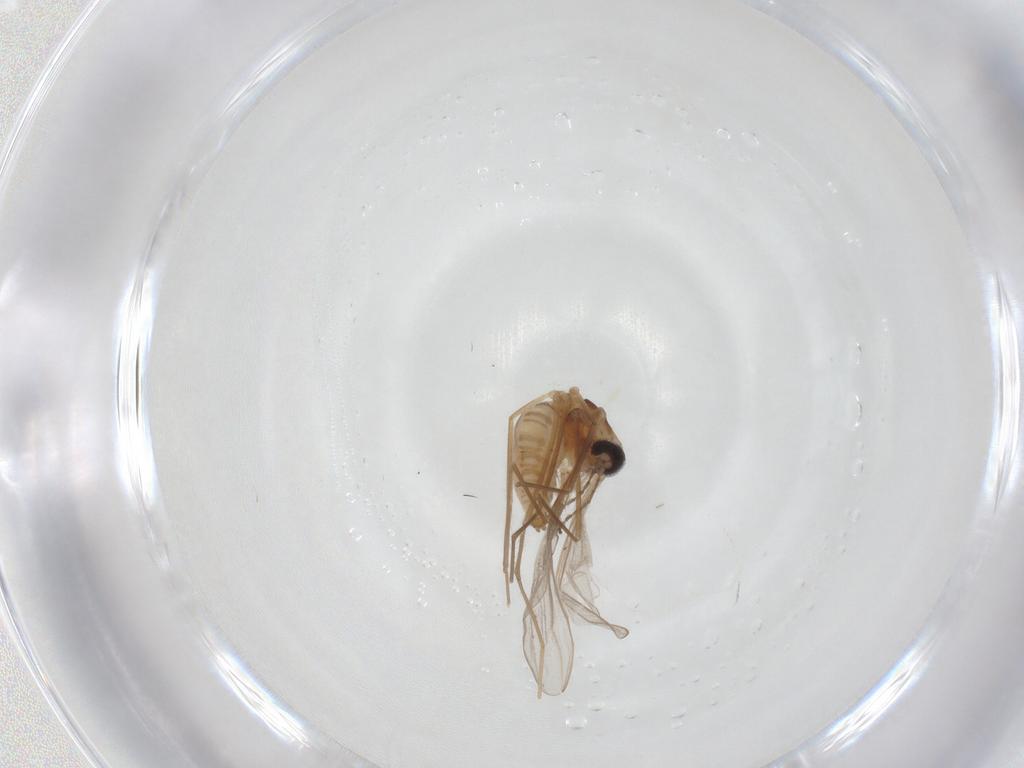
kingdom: Animalia
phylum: Arthropoda
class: Insecta
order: Diptera
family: Cecidomyiidae
